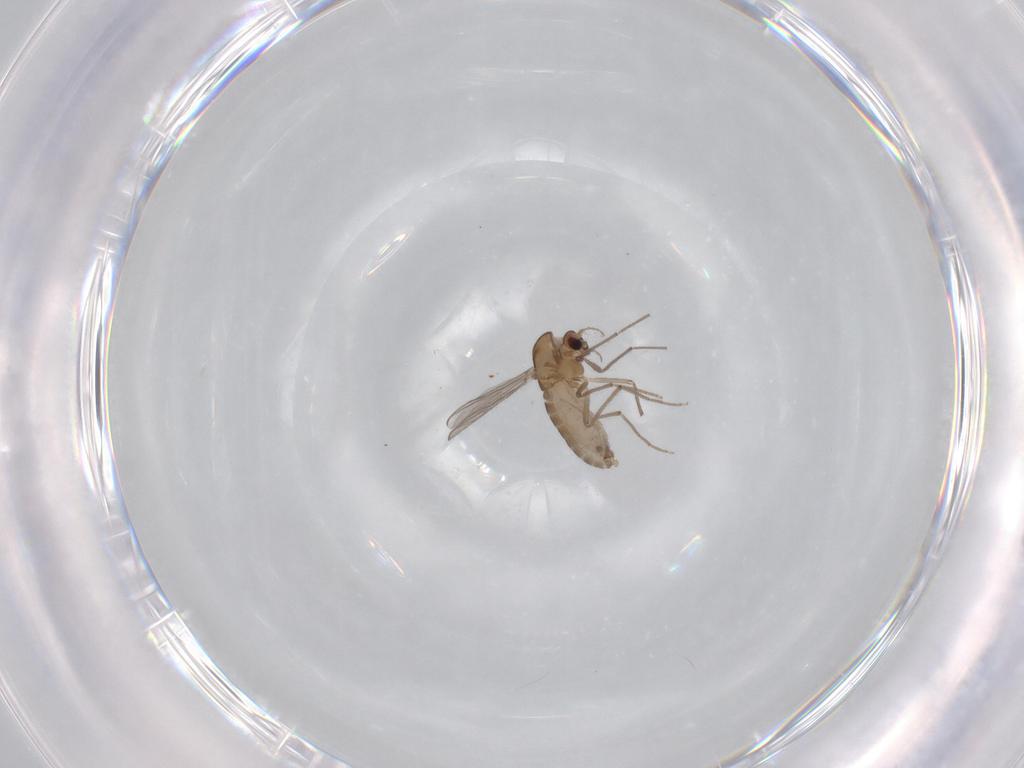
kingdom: Animalia
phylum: Arthropoda
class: Insecta
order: Diptera
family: Chironomidae
